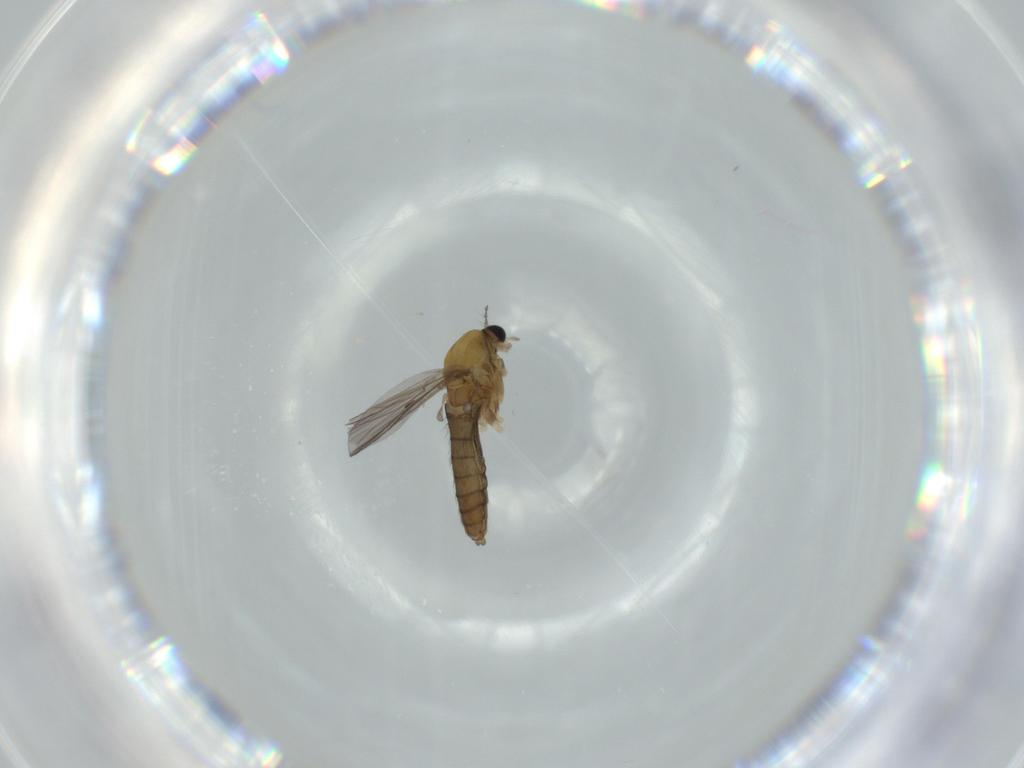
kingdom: Animalia
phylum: Arthropoda
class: Insecta
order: Diptera
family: Chironomidae
